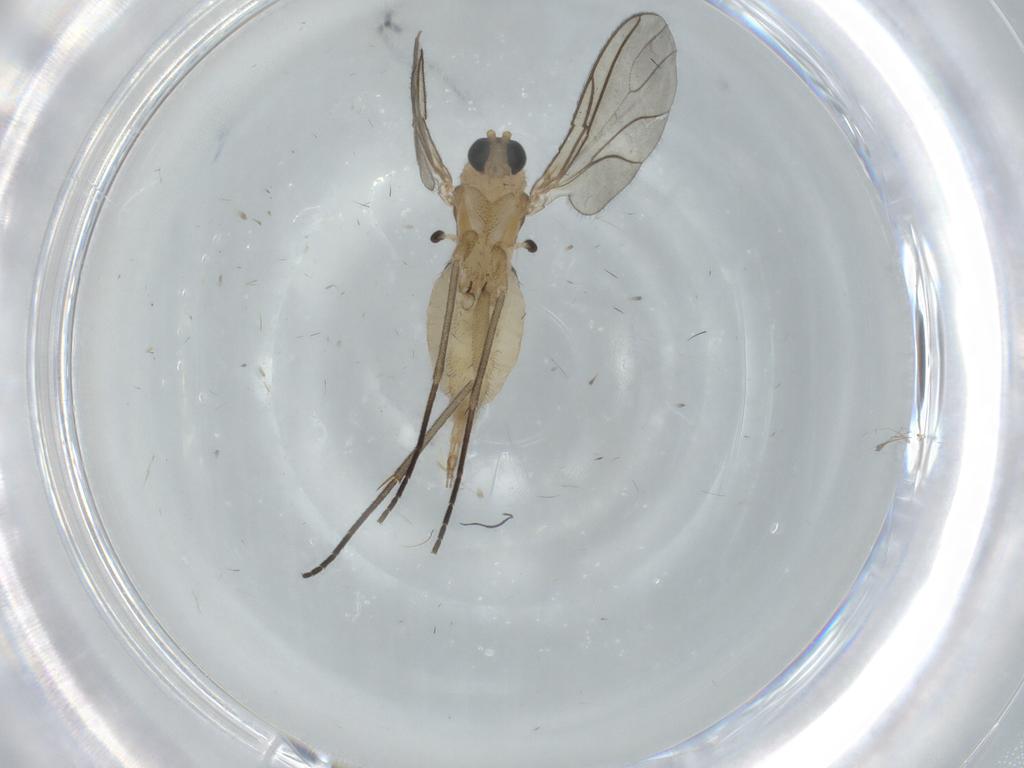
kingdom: Animalia
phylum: Arthropoda
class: Insecta
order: Diptera
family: Sciaridae
